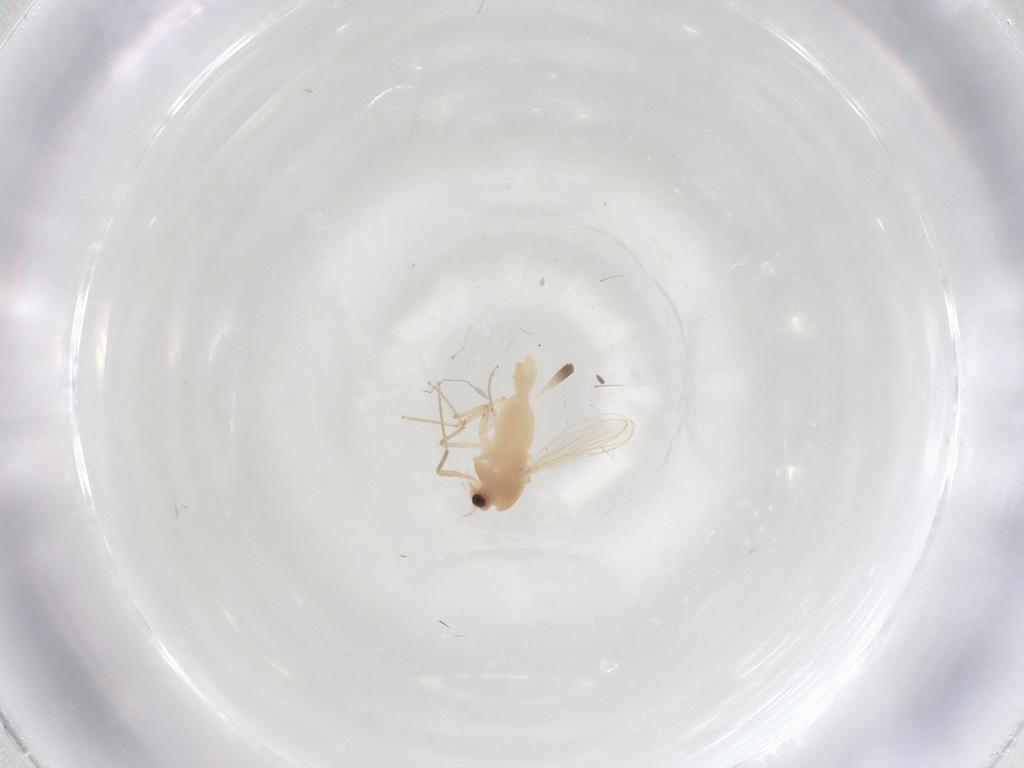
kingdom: Animalia
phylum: Arthropoda
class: Insecta
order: Diptera
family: Chironomidae
